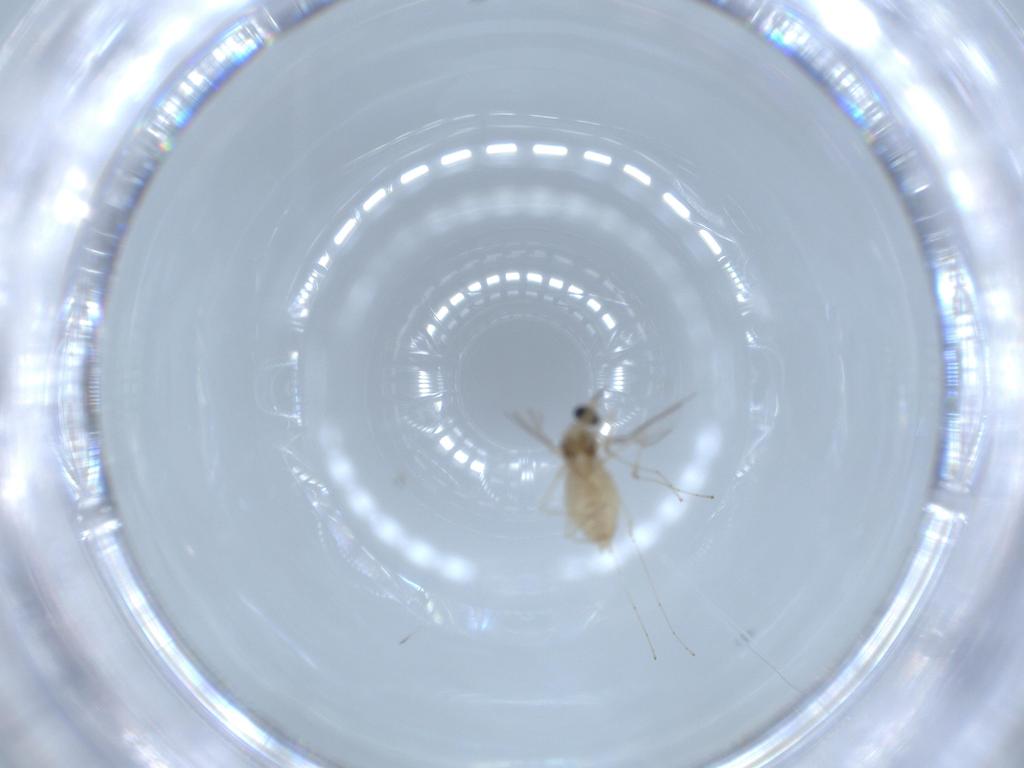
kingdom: Animalia
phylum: Arthropoda
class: Insecta
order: Diptera
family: Cecidomyiidae
